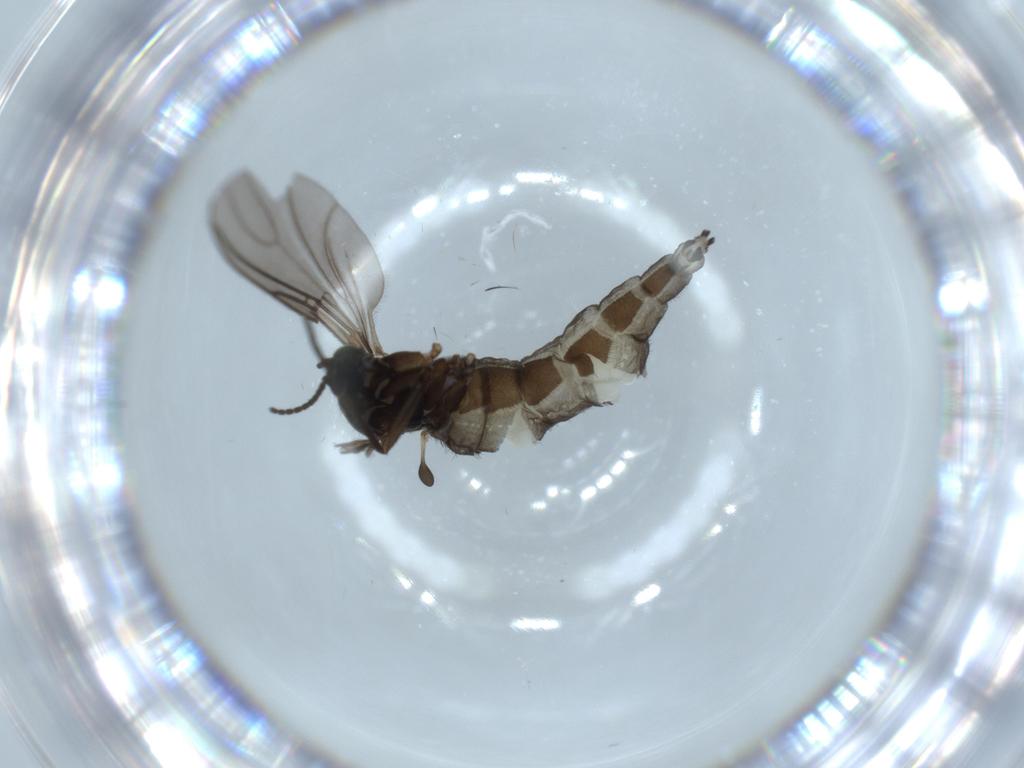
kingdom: Animalia
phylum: Arthropoda
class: Insecta
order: Diptera
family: Sciaridae
